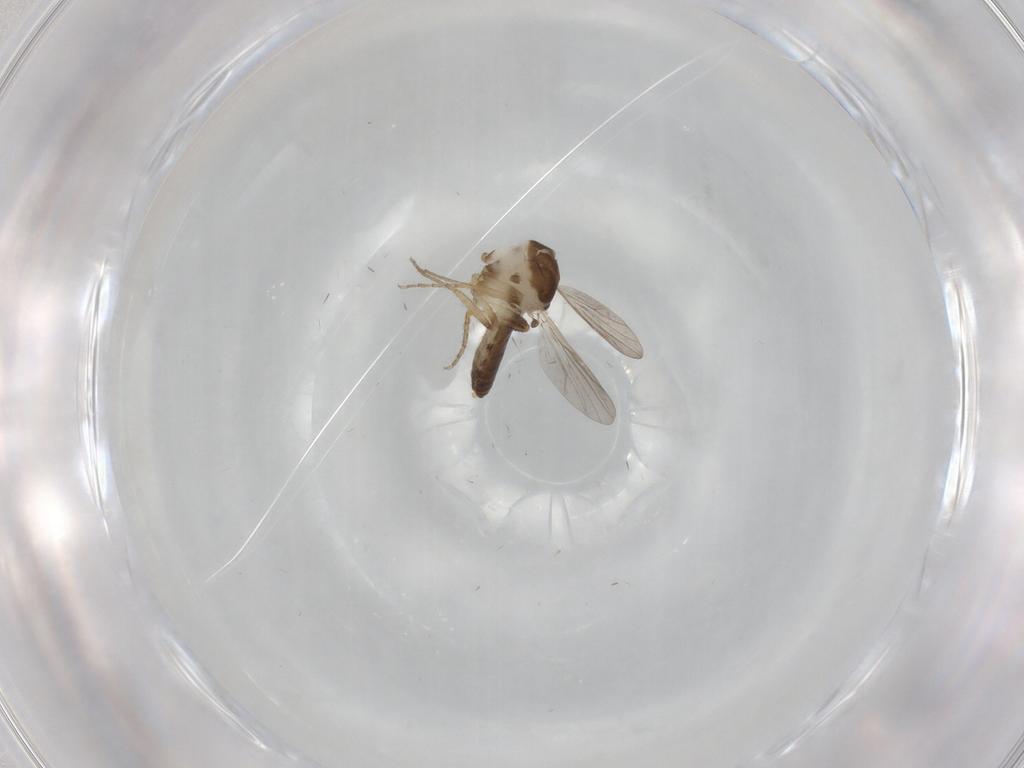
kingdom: Animalia
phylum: Arthropoda
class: Insecta
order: Diptera
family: Ceratopogonidae
